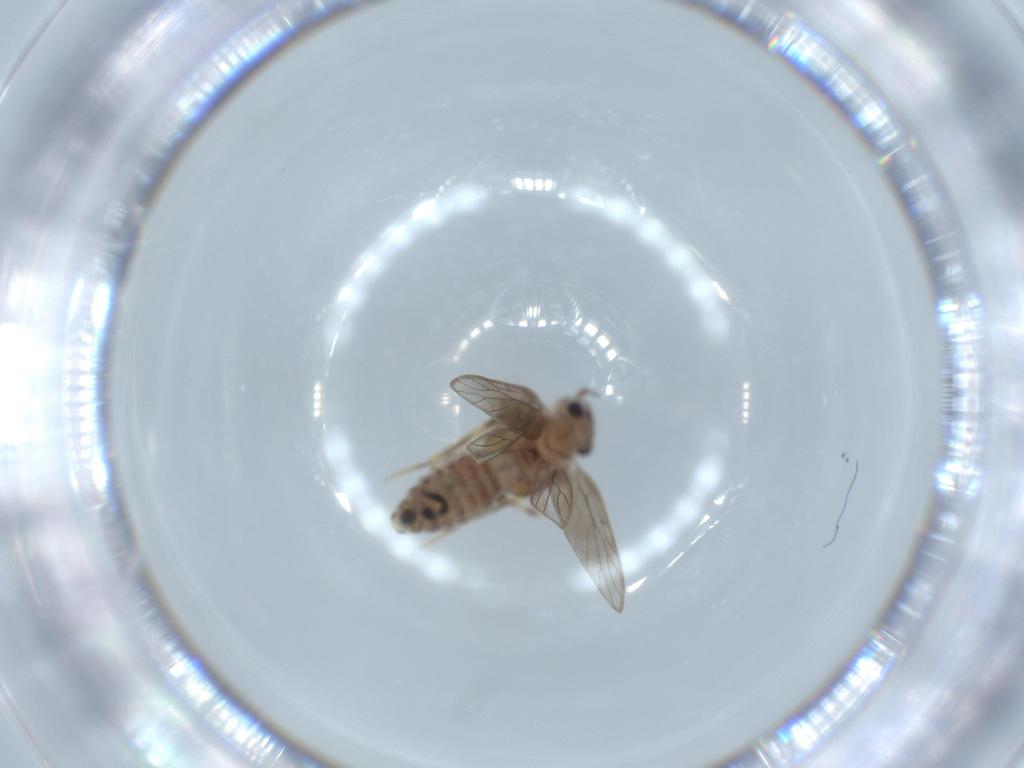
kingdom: Animalia
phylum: Arthropoda
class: Insecta
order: Psocodea
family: Lepidopsocidae
